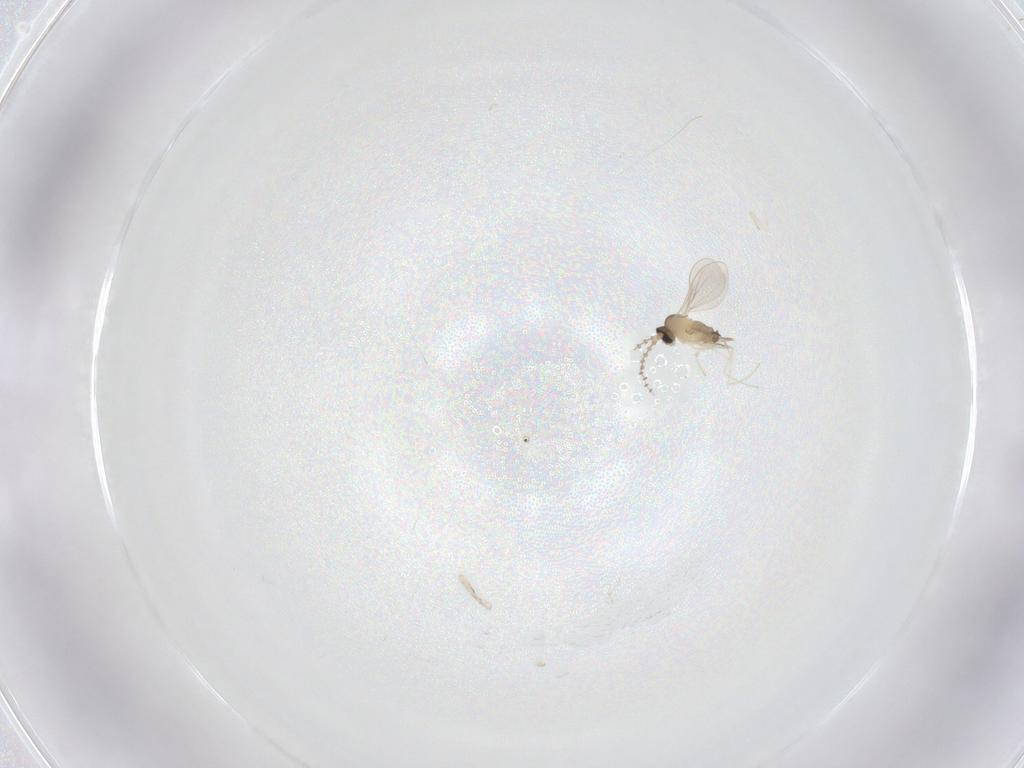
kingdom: Animalia
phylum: Arthropoda
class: Insecta
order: Diptera
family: Cecidomyiidae
